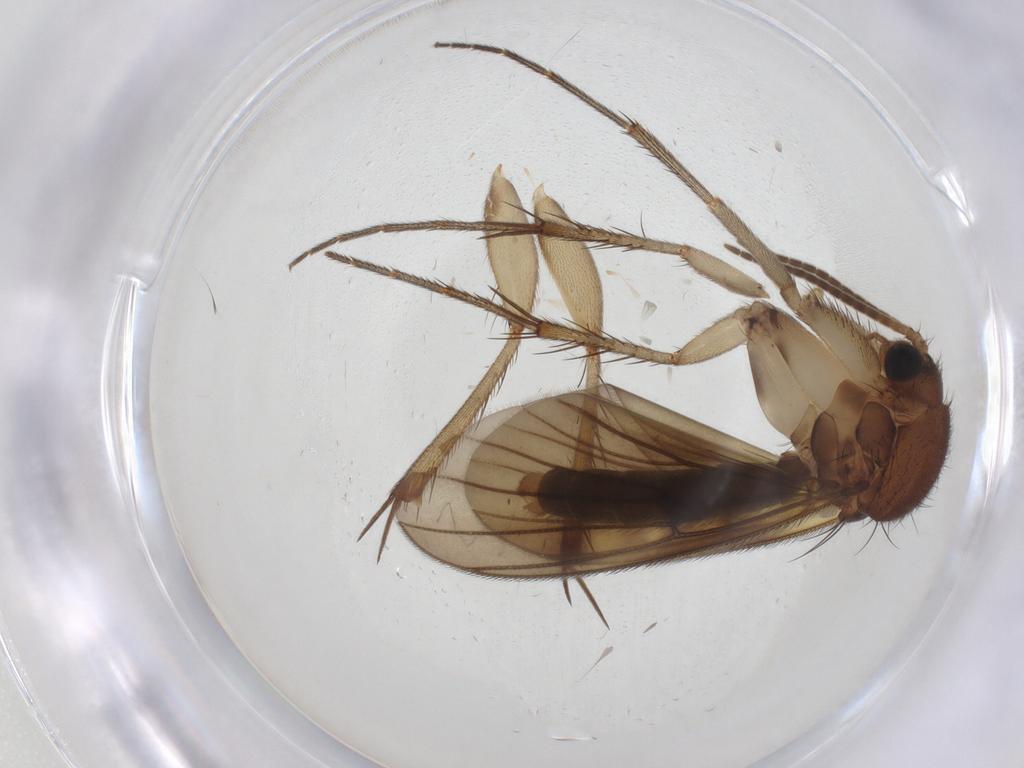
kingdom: Animalia
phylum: Arthropoda
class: Insecta
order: Diptera
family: Mycetophilidae
